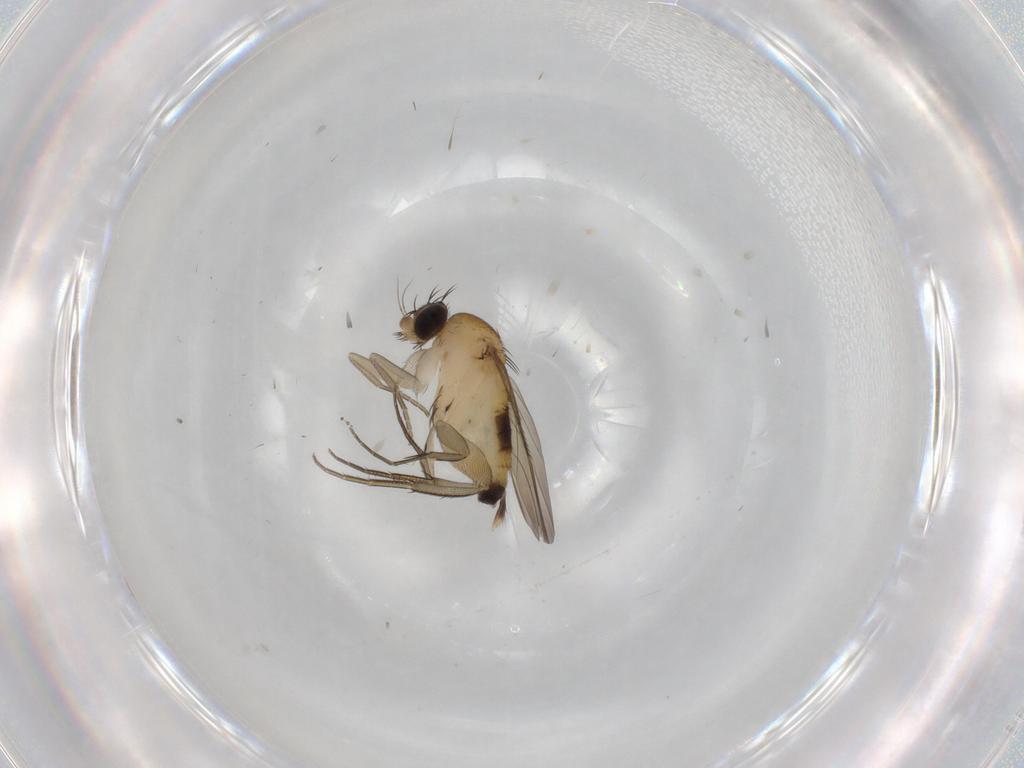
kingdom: Animalia
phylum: Arthropoda
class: Insecta
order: Diptera
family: Phoridae
